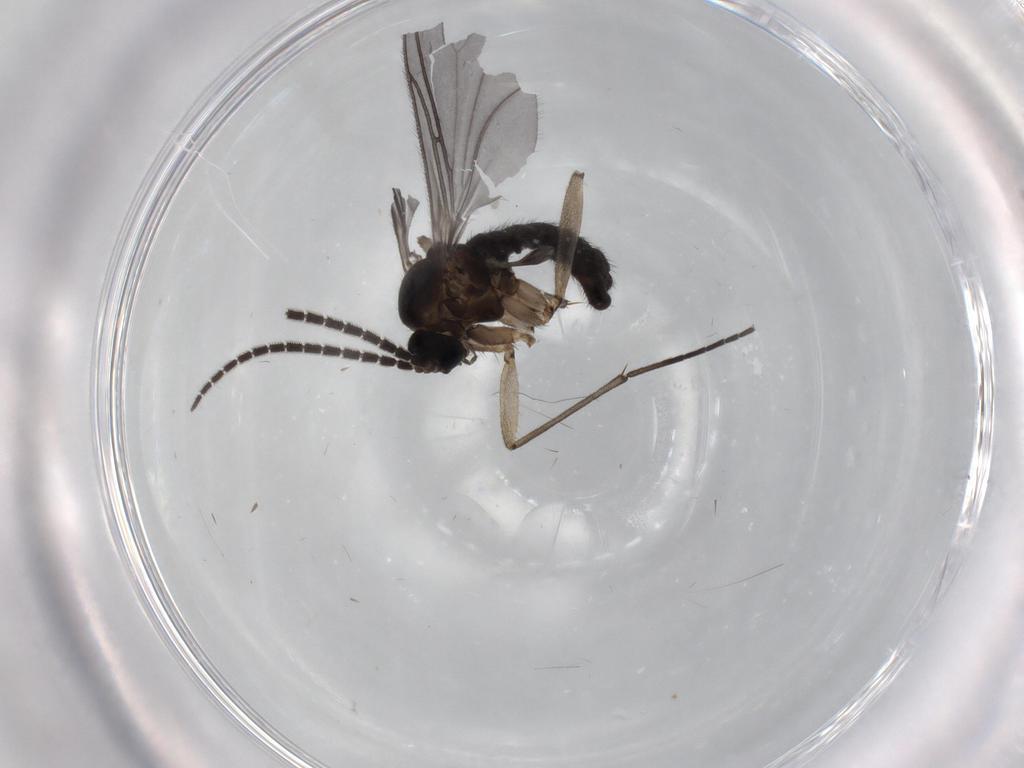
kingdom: Animalia
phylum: Arthropoda
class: Insecta
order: Diptera
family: Sciaridae
